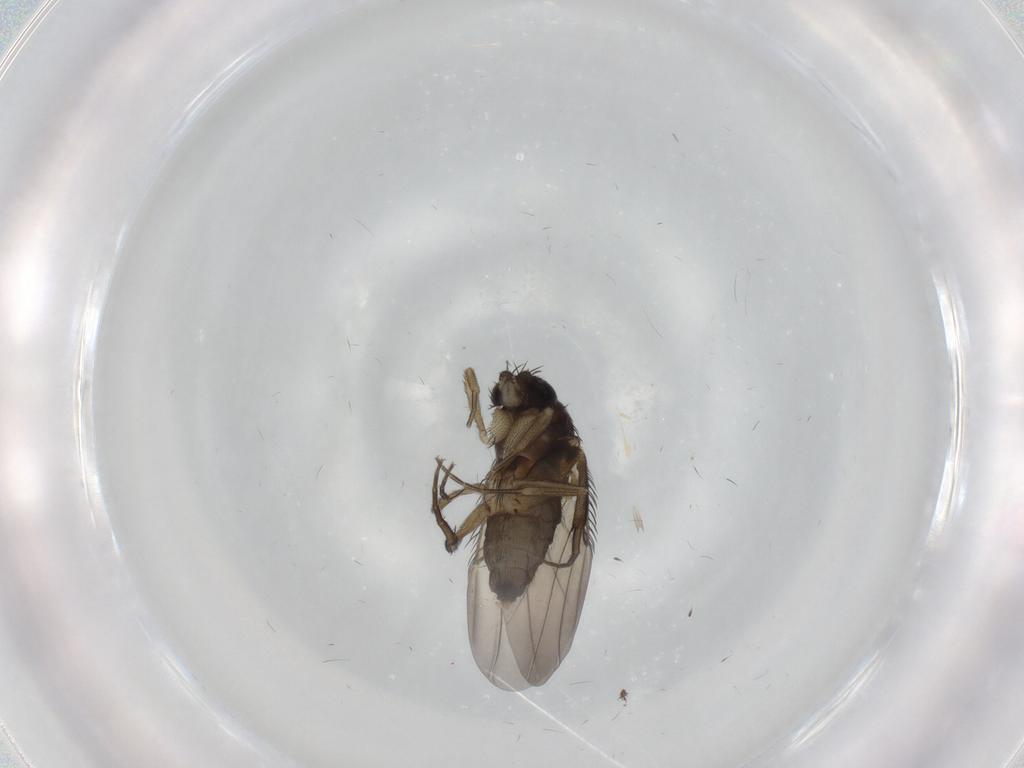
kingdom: Animalia
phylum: Arthropoda
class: Insecta
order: Diptera
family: Phoridae
